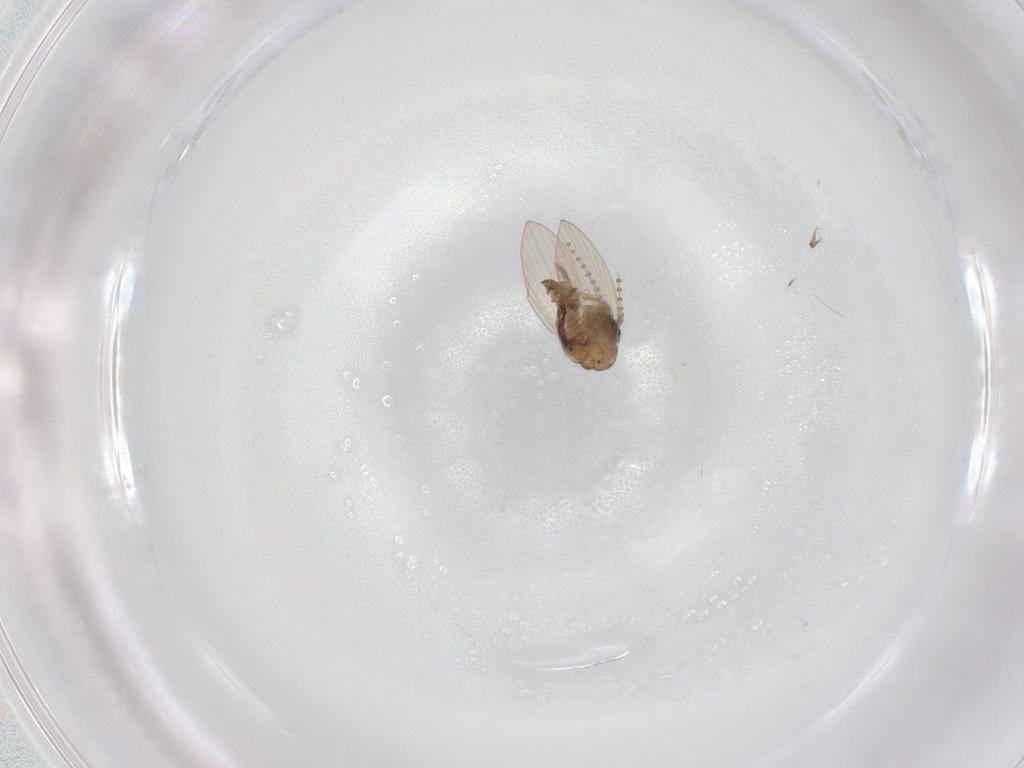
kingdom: Animalia
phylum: Arthropoda
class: Insecta
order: Diptera
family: Psychodidae
